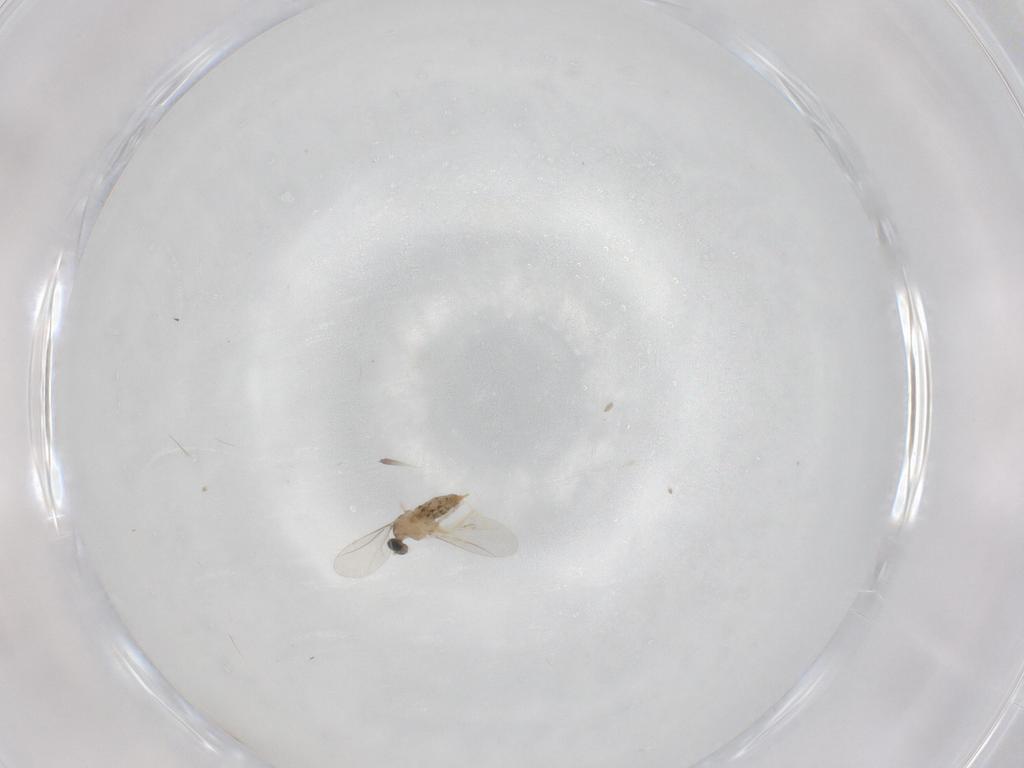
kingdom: Animalia
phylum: Arthropoda
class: Insecta
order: Diptera
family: Cecidomyiidae
